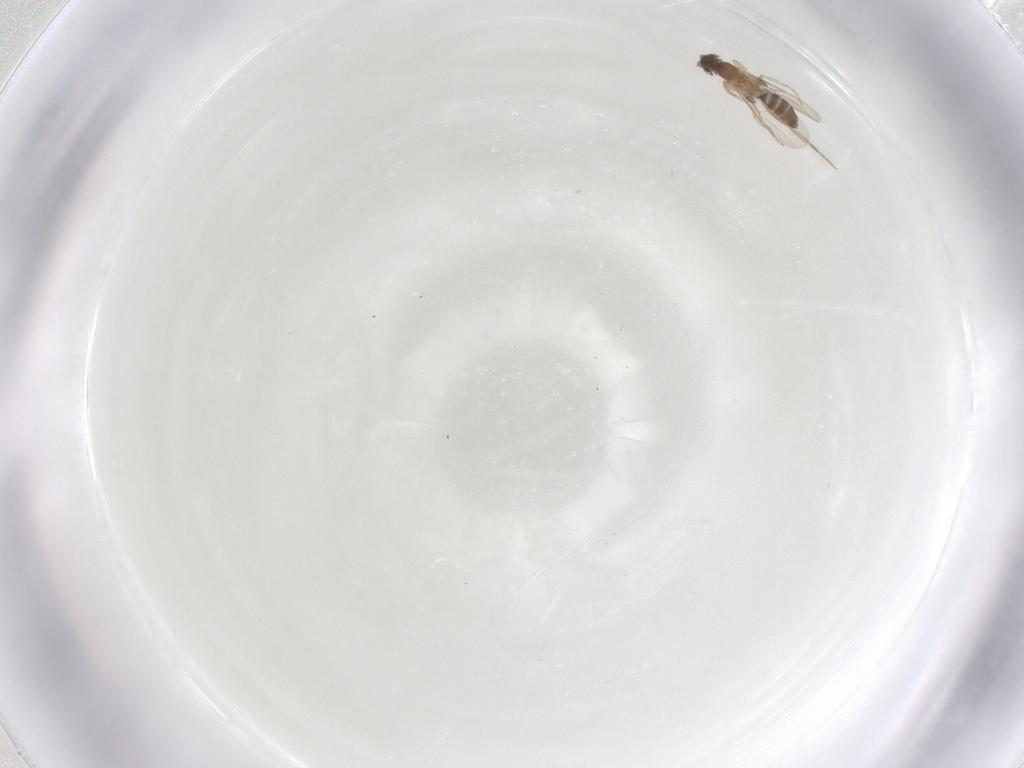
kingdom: Animalia
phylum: Arthropoda
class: Insecta
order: Diptera
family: Phoridae
